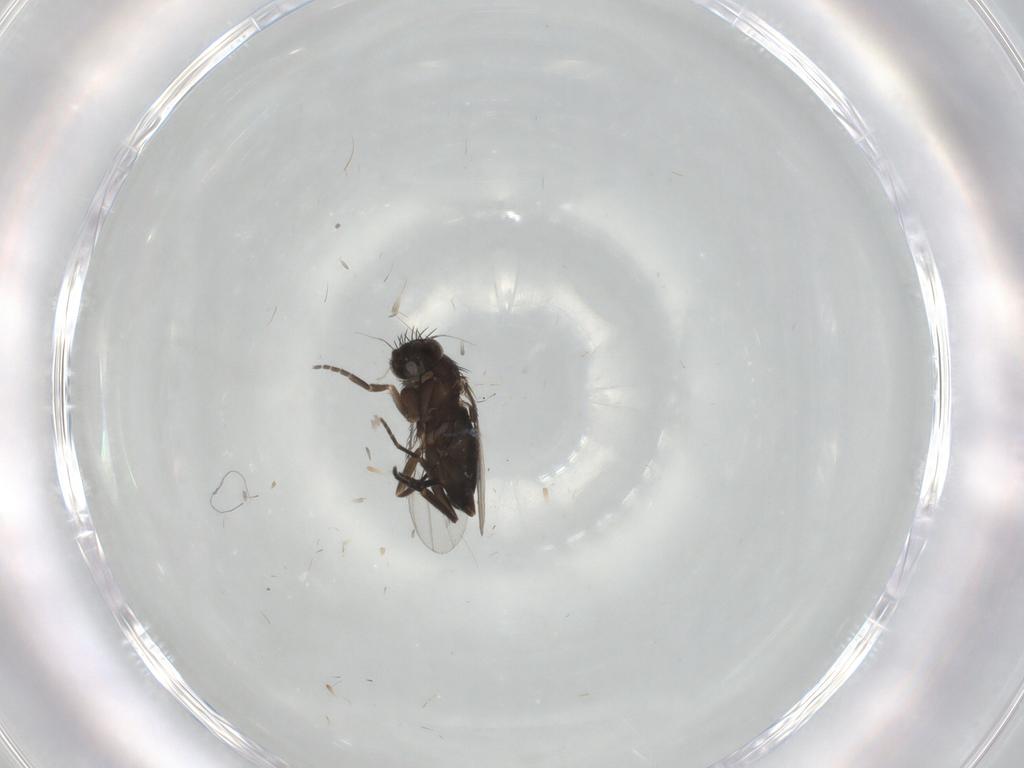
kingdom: Animalia
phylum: Arthropoda
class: Insecta
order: Diptera
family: Phoridae
